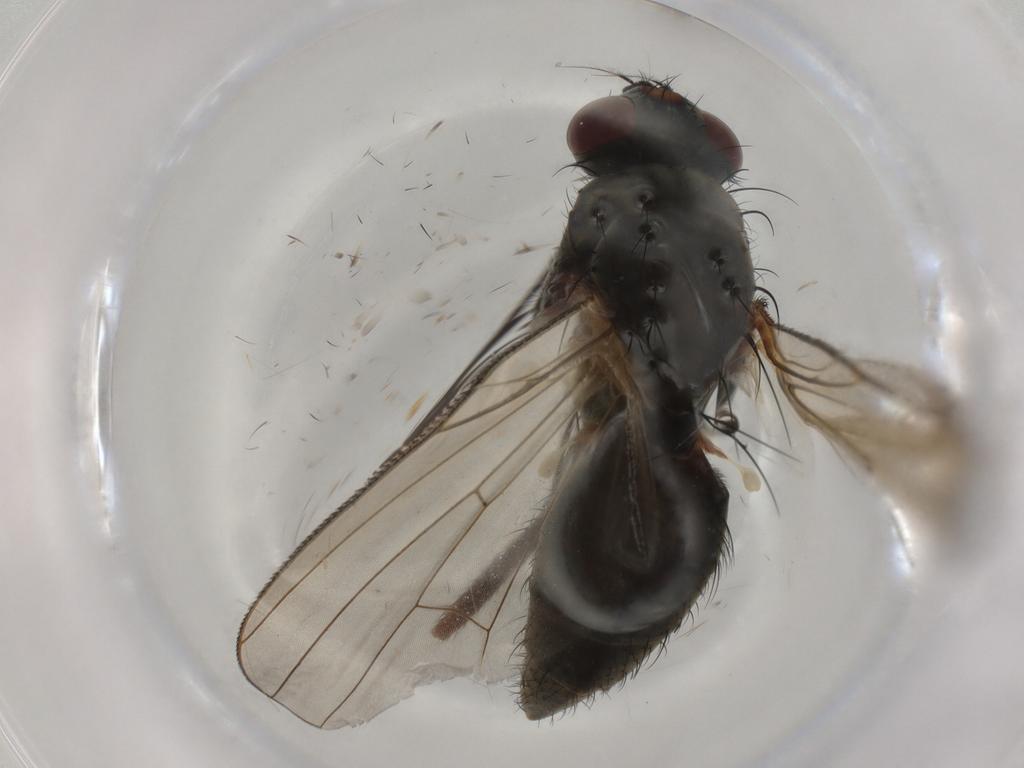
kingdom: Animalia
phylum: Arthropoda
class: Insecta
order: Diptera
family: Anthomyiidae
